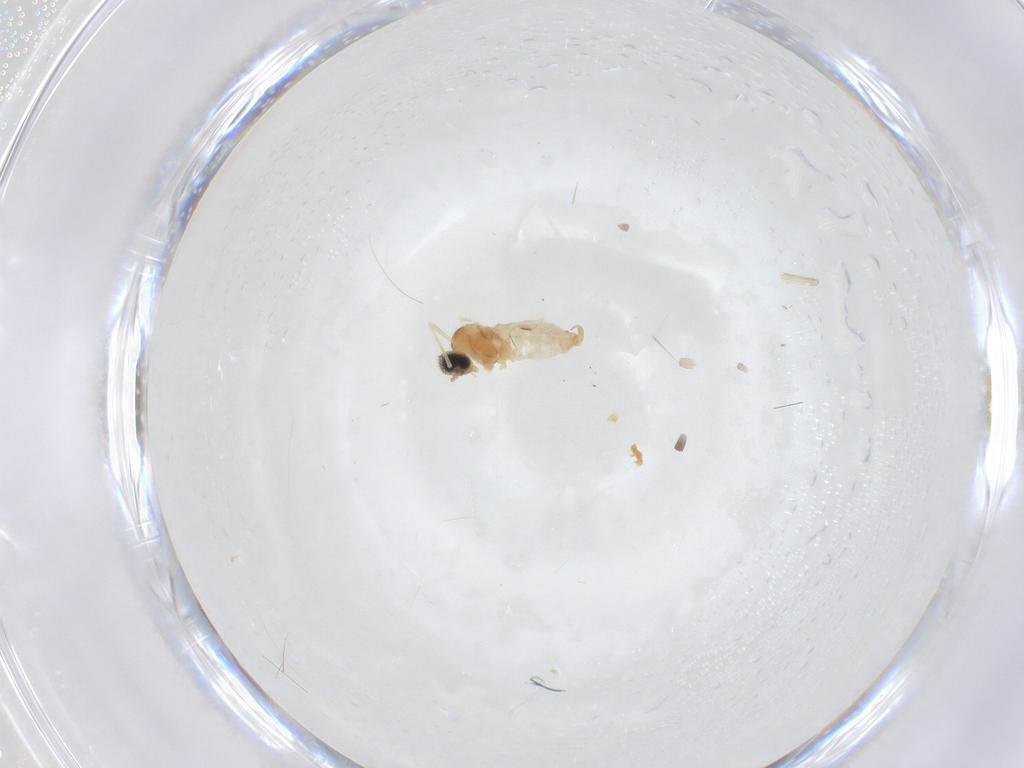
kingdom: Animalia
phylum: Arthropoda
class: Insecta
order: Diptera
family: Cecidomyiidae
